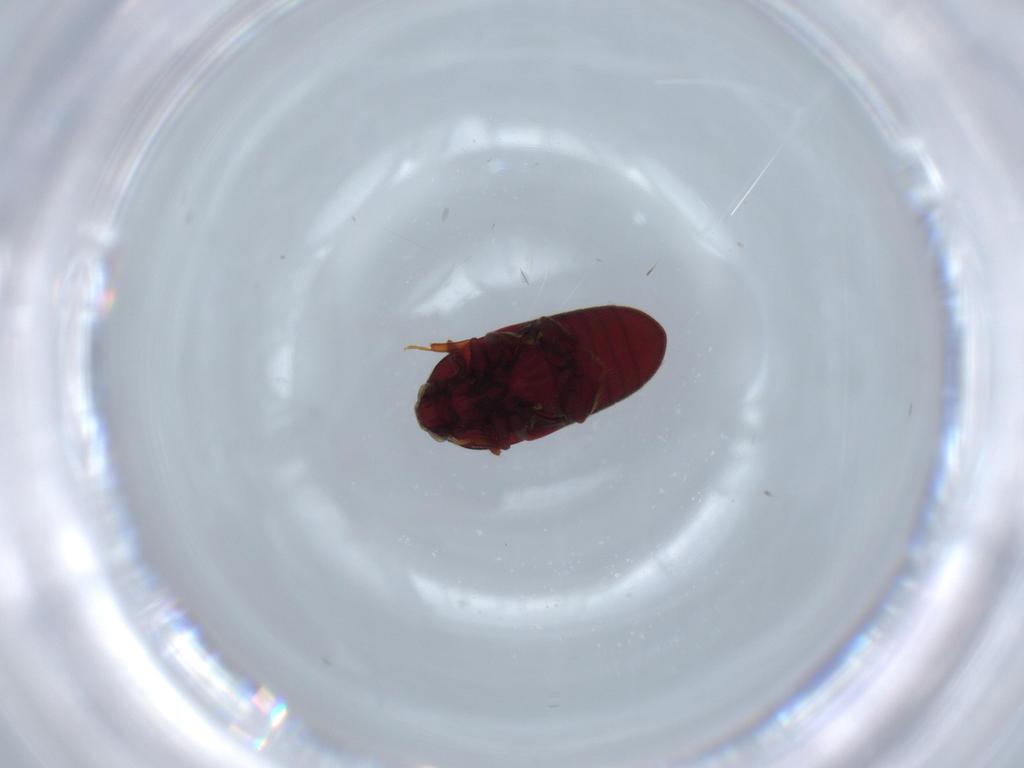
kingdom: Animalia
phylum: Arthropoda
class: Insecta
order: Coleoptera
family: Throscidae
